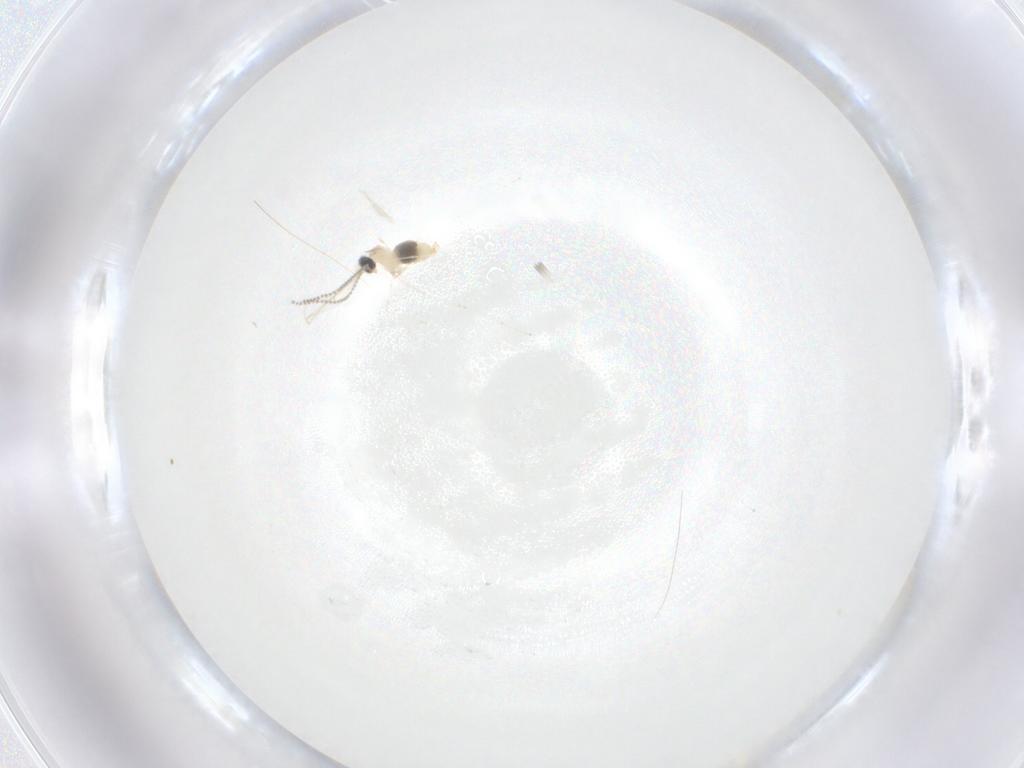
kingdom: Animalia
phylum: Arthropoda
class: Insecta
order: Diptera
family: Cecidomyiidae
